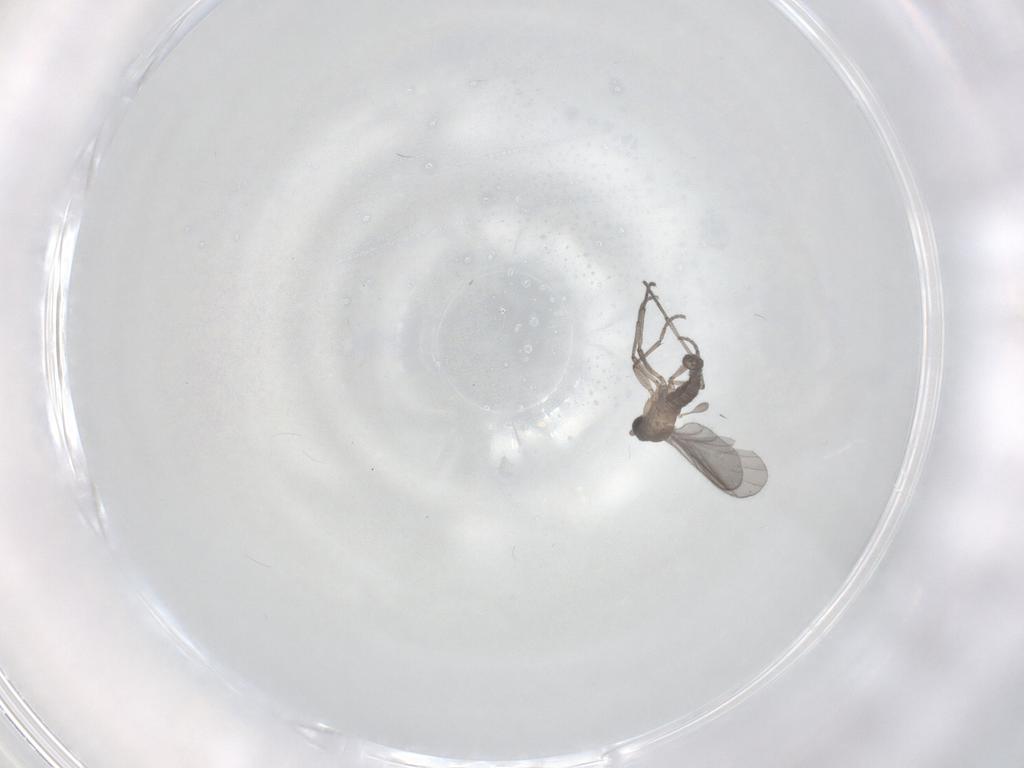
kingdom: Animalia
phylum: Arthropoda
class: Insecta
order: Diptera
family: Sciaridae
